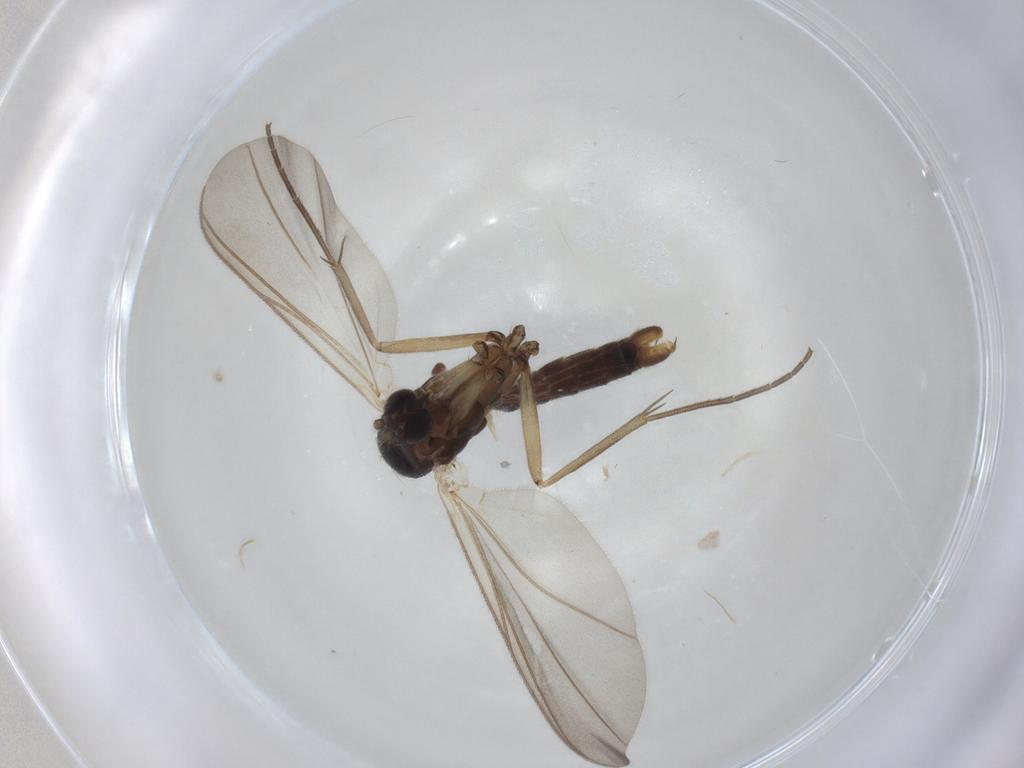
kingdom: Animalia
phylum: Arthropoda
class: Insecta
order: Diptera
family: Mycetophilidae
